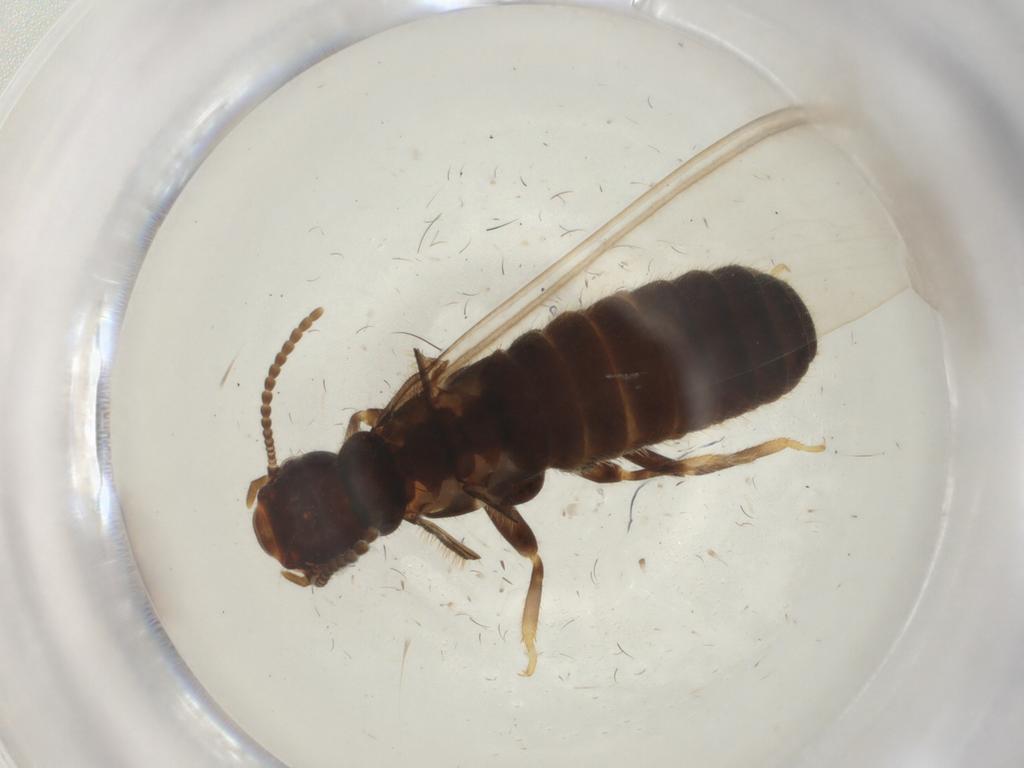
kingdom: Animalia
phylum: Arthropoda
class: Insecta
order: Blattodea
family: Rhinotermitidae
